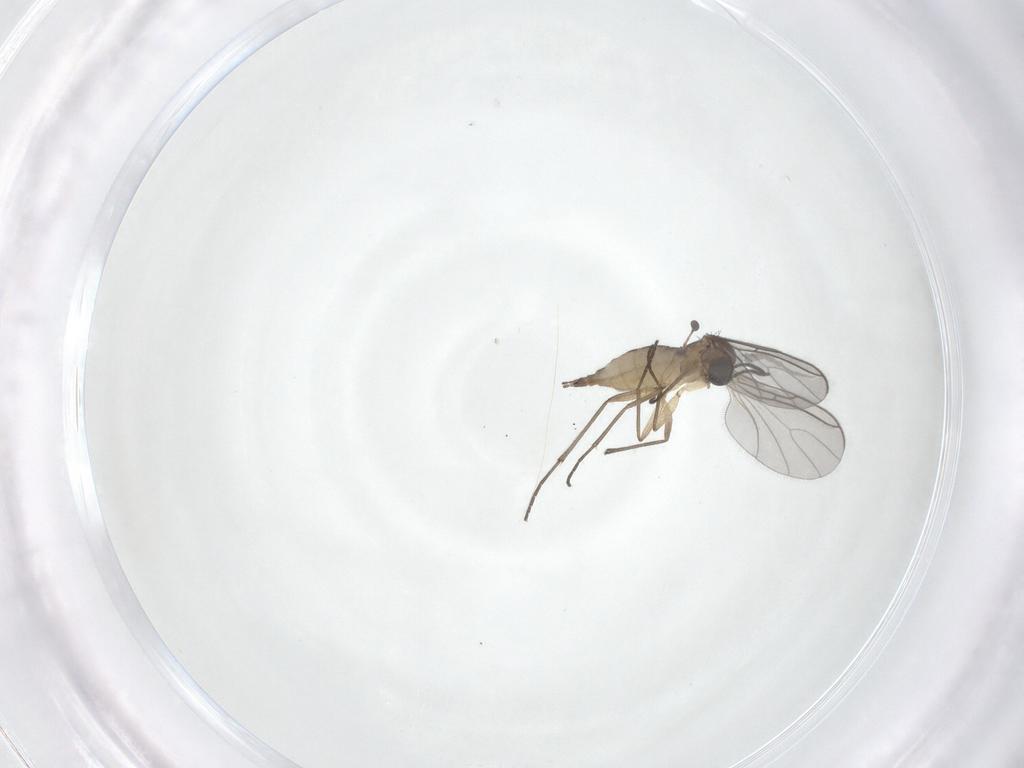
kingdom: Animalia
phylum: Arthropoda
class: Insecta
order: Diptera
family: Sciaridae
